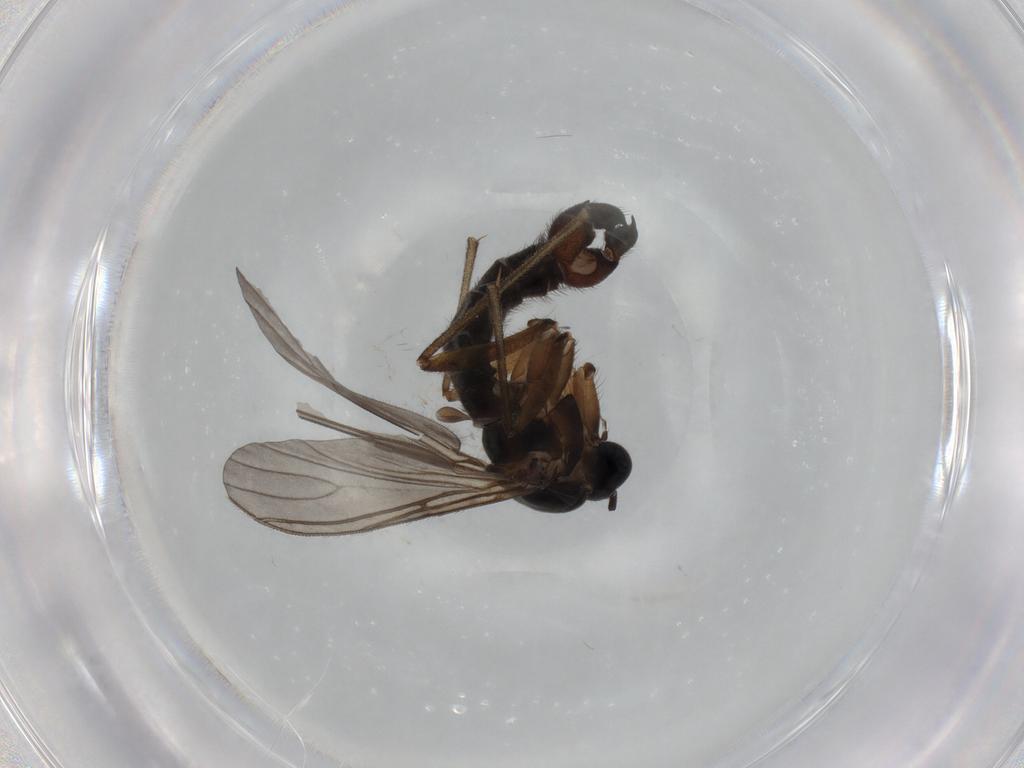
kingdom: Animalia
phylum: Arthropoda
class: Insecta
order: Diptera
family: Sciaridae
